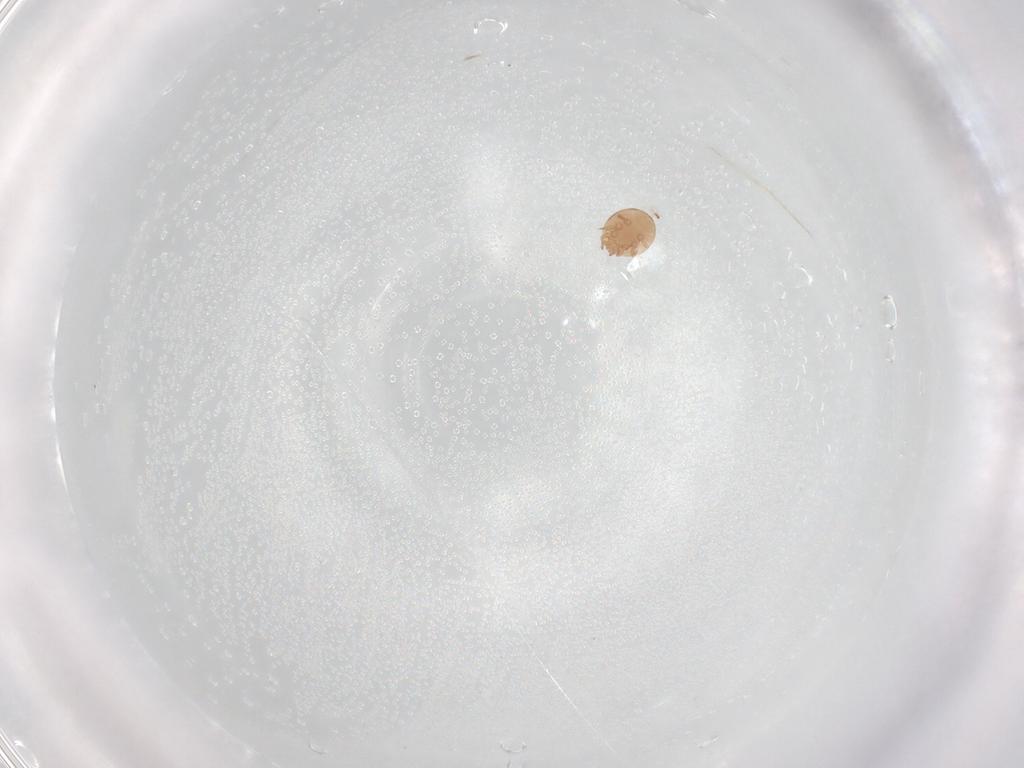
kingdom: Animalia
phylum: Arthropoda
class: Arachnida
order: Mesostigmata
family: Trematuridae
